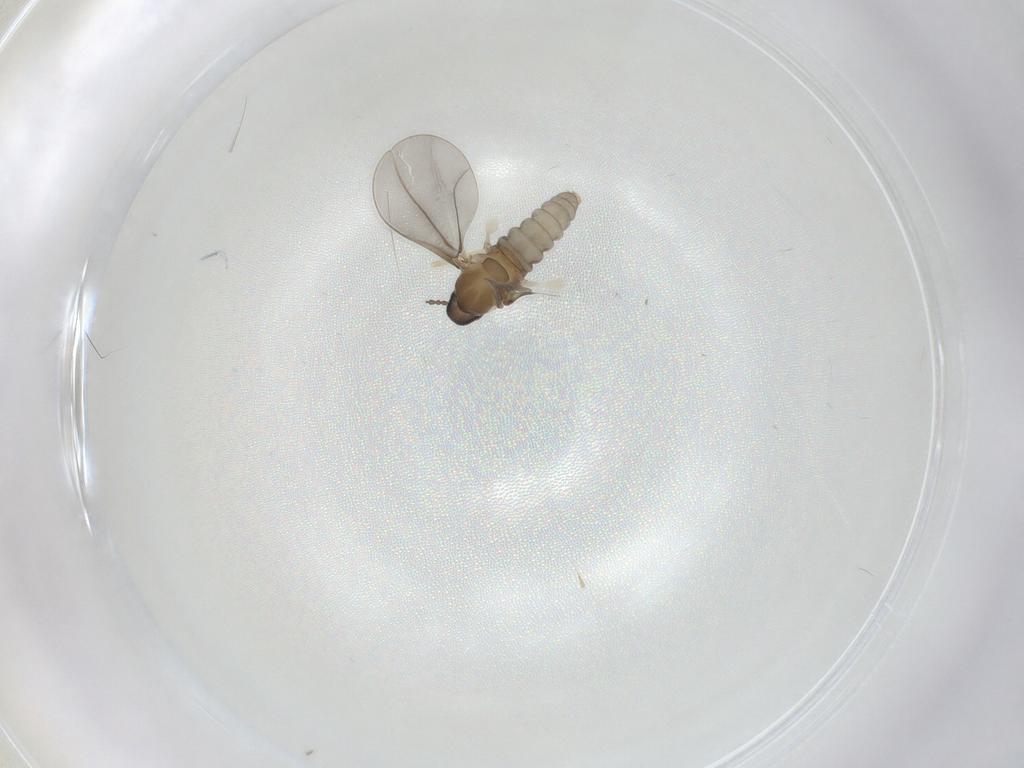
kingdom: Animalia
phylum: Arthropoda
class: Insecta
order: Diptera
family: Cecidomyiidae
